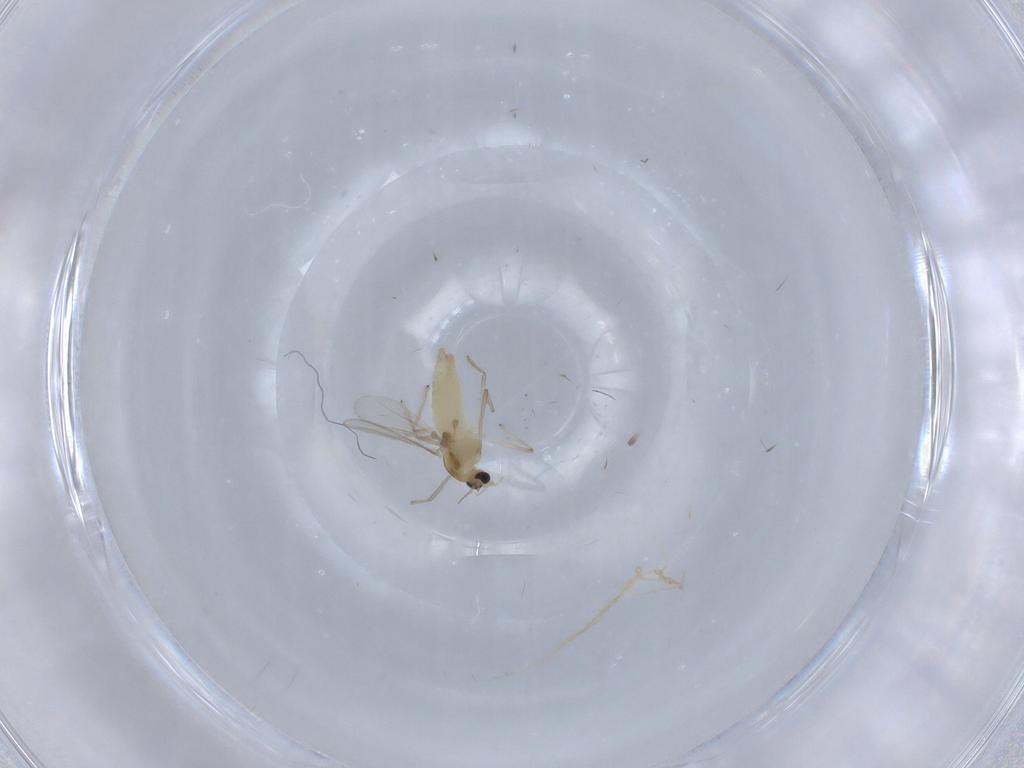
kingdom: Animalia
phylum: Arthropoda
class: Insecta
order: Diptera
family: Chironomidae
